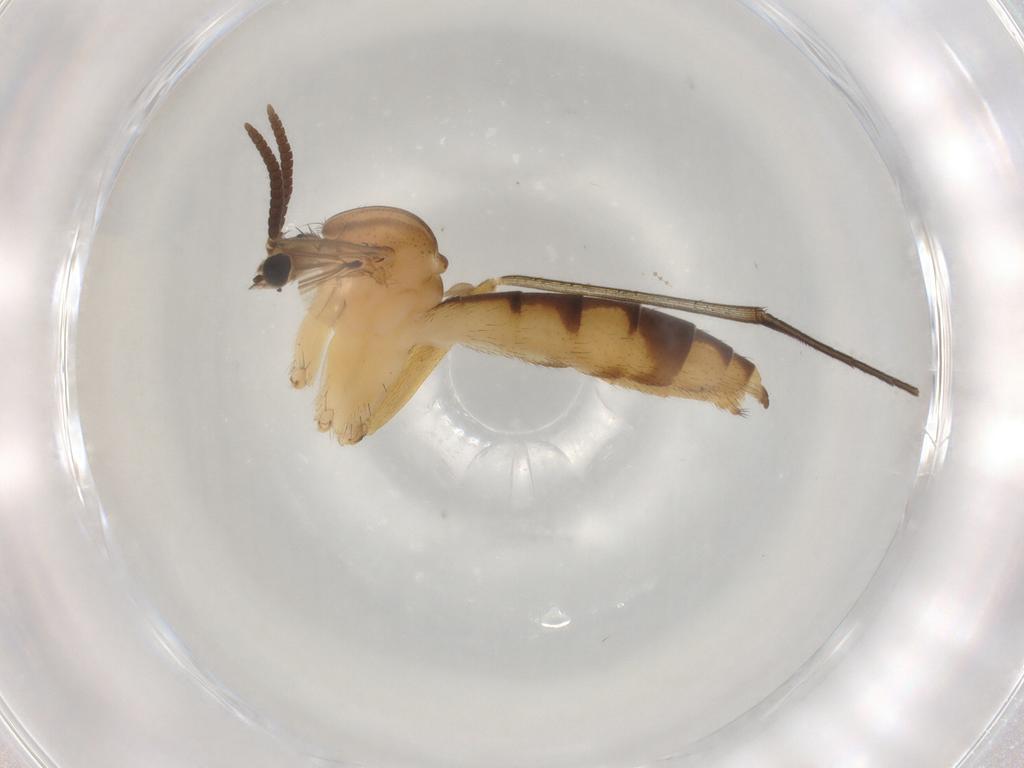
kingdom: Animalia
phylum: Arthropoda
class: Insecta
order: Diptera
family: Mycetophilidae
